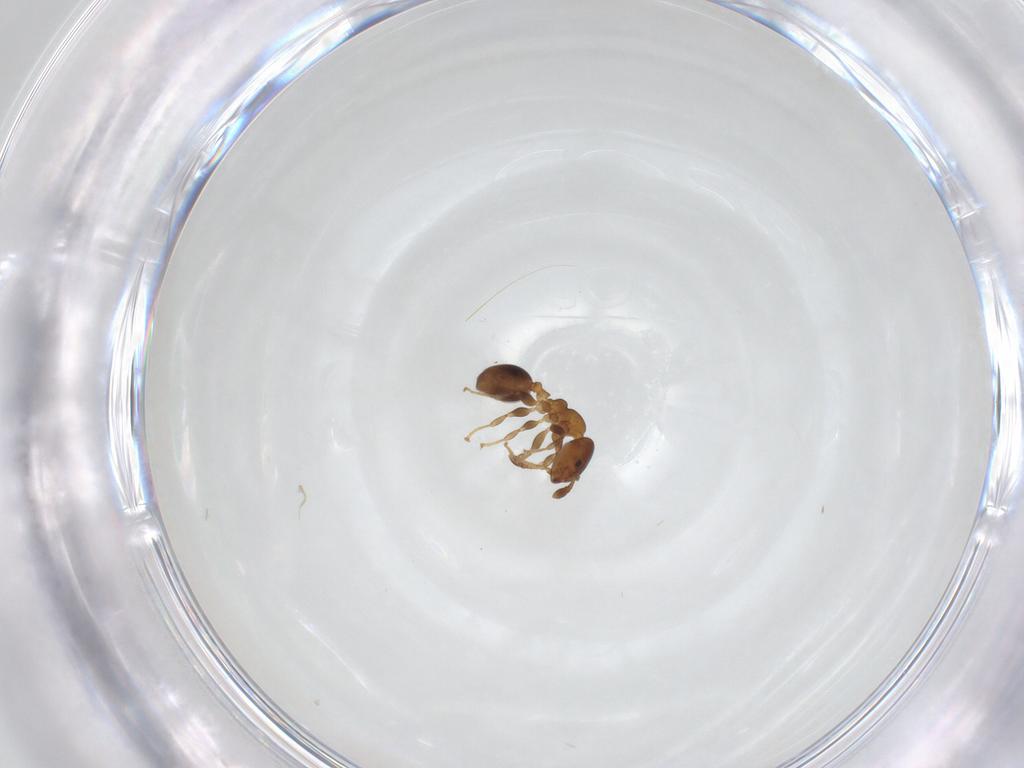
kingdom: Animalia
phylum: Arthropoda
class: Insecta
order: Hymenoptera
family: Formicidae
